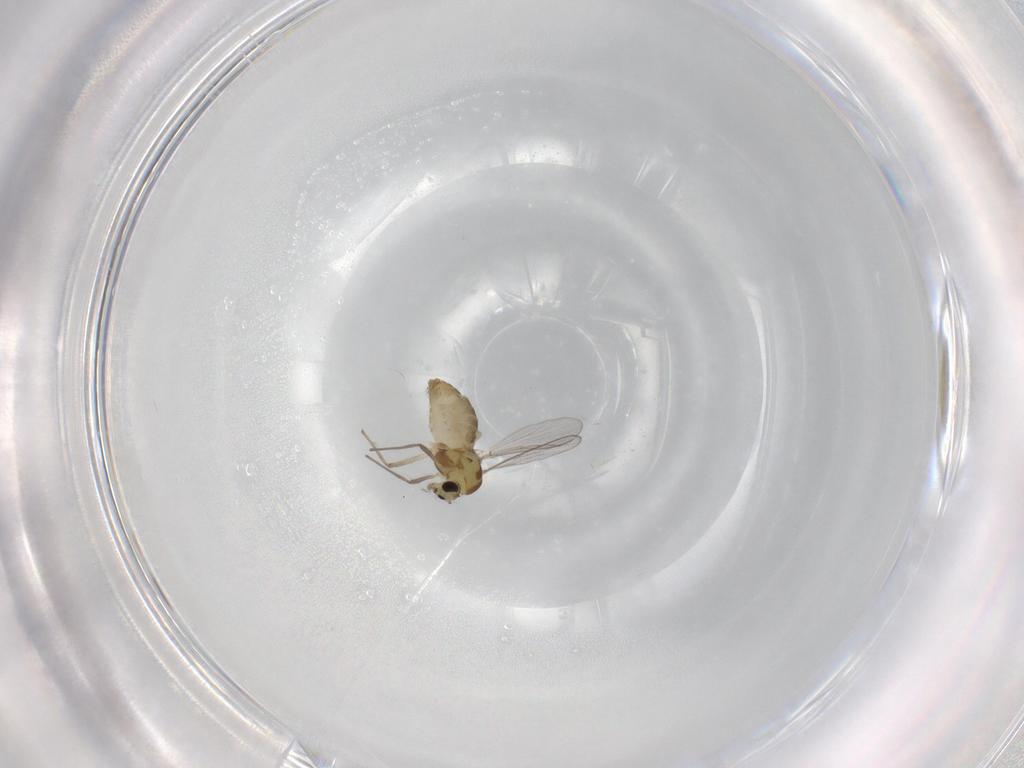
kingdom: Animalia
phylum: Arthropoda
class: Insecta
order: Diptera
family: Chironomidae
